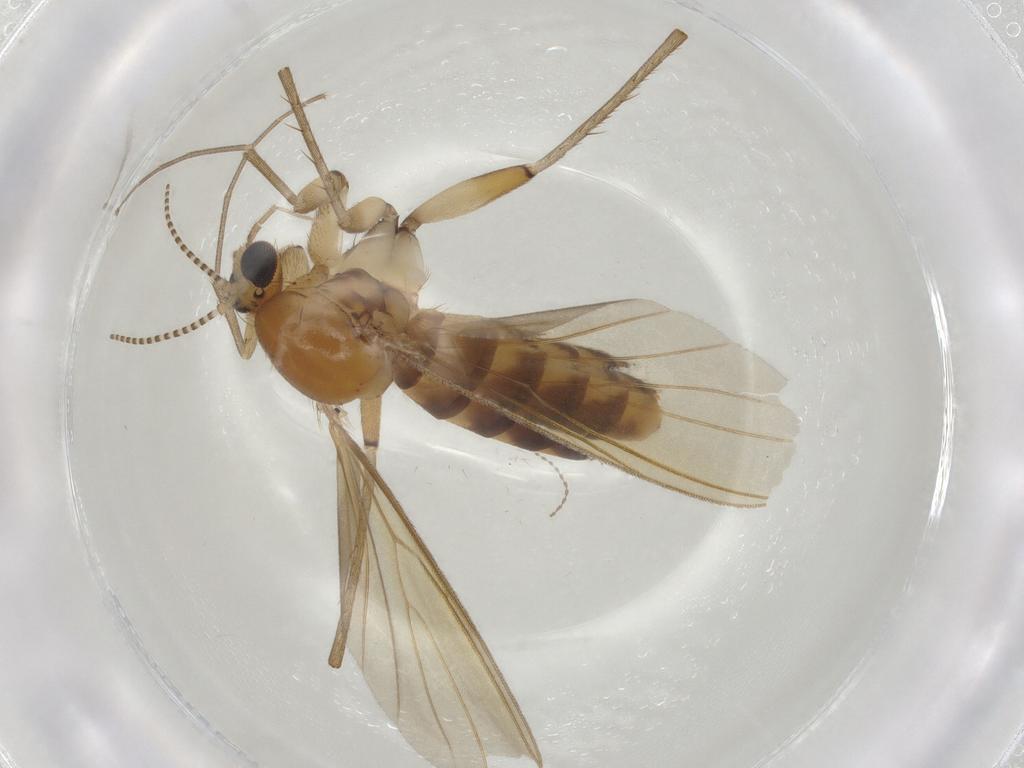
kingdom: Animalia
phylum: Arthropoda
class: Insecta
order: Diptera
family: Mycetophilidae
